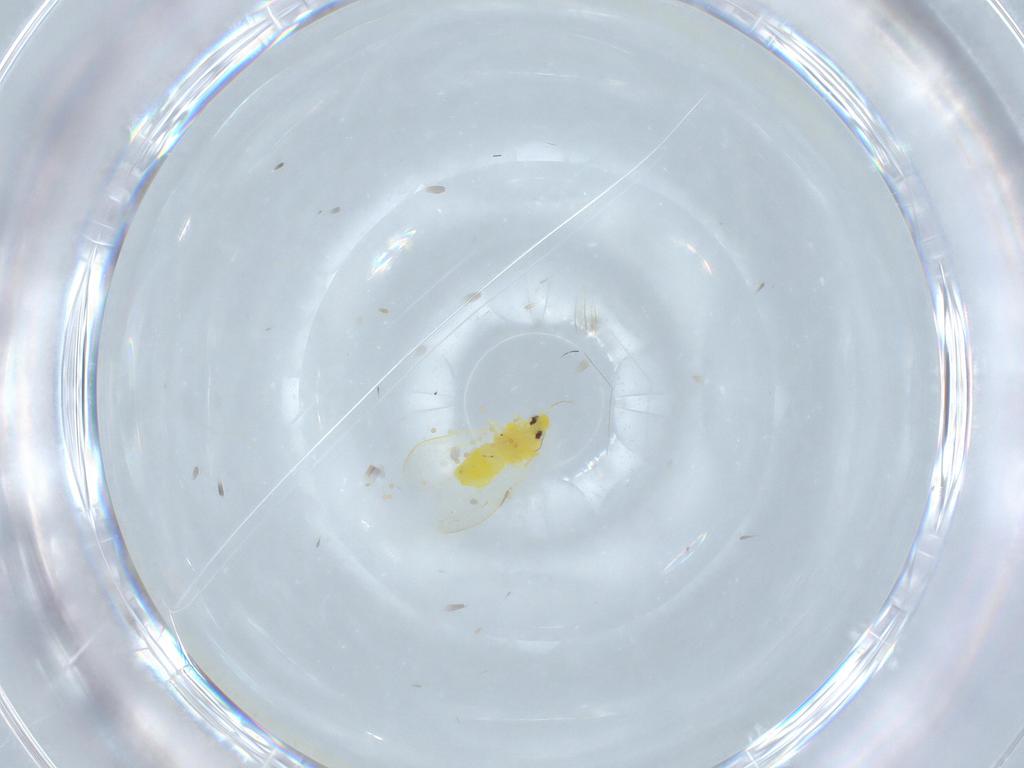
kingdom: Animalia
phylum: Arthropoda
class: Insecta
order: Hemiptera
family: Aleyrodidae
